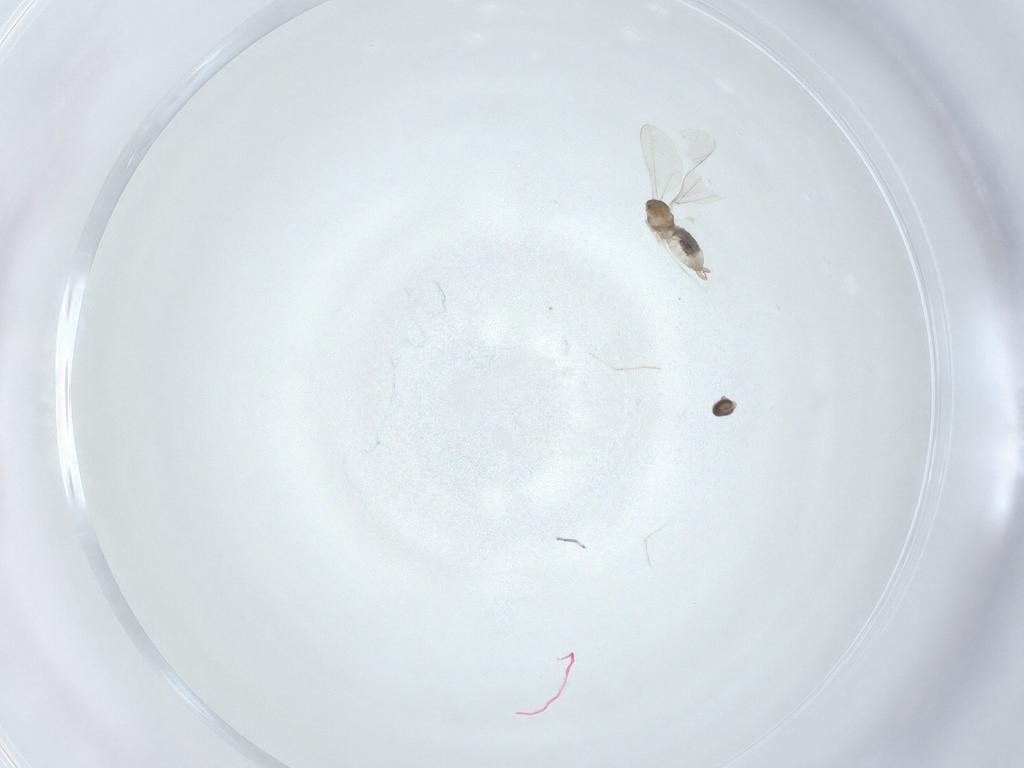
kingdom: Animalia
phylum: Arthropoda
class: Insecta
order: Diptera
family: Cecidomyiidae
